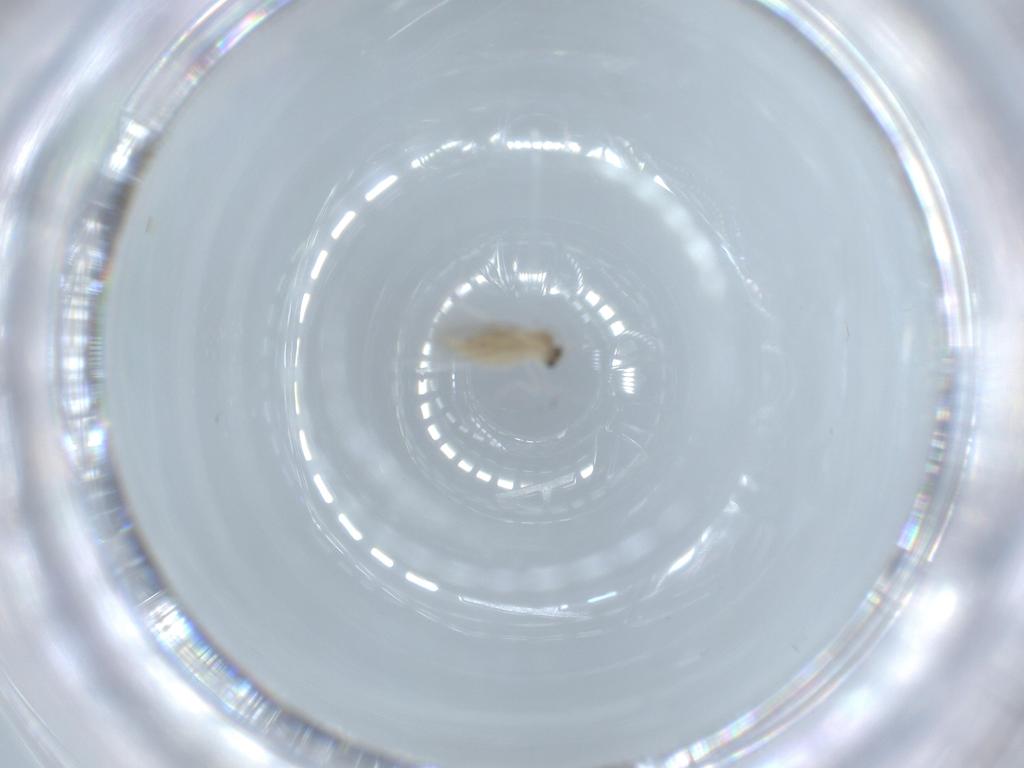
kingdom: Animalia
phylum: Arthropoda
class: Insecta
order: Diptera
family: Cecidomyiidae
